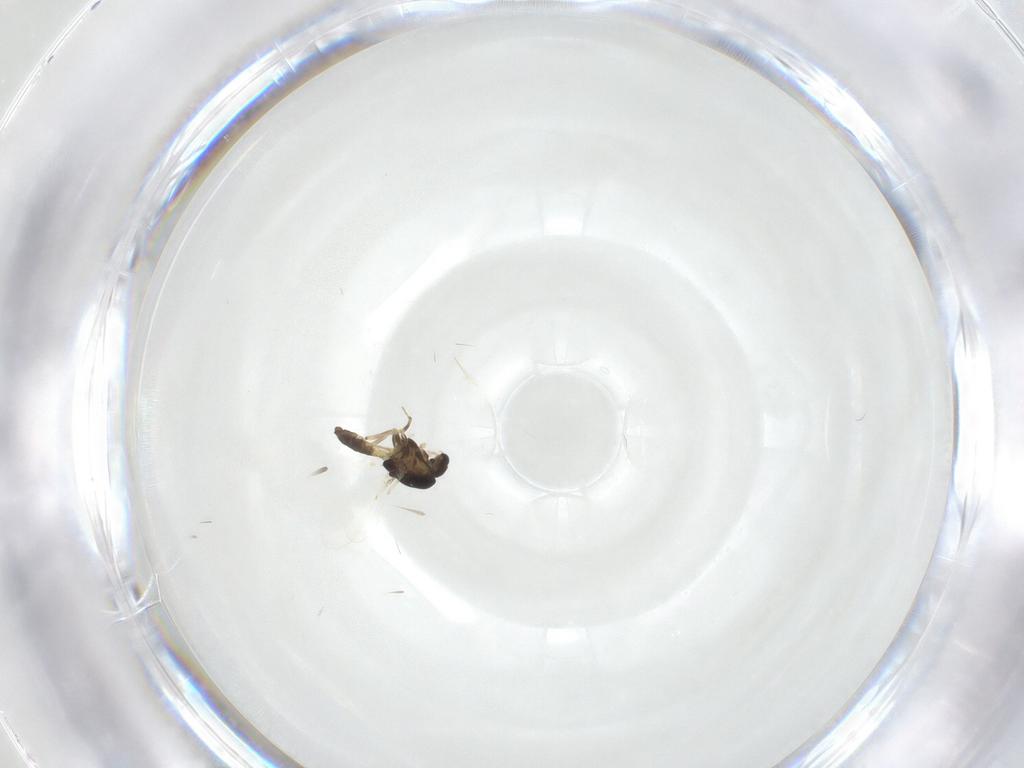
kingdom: Animalia
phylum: Arthropoda
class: Insecta
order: Diptera
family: Chironomidae
